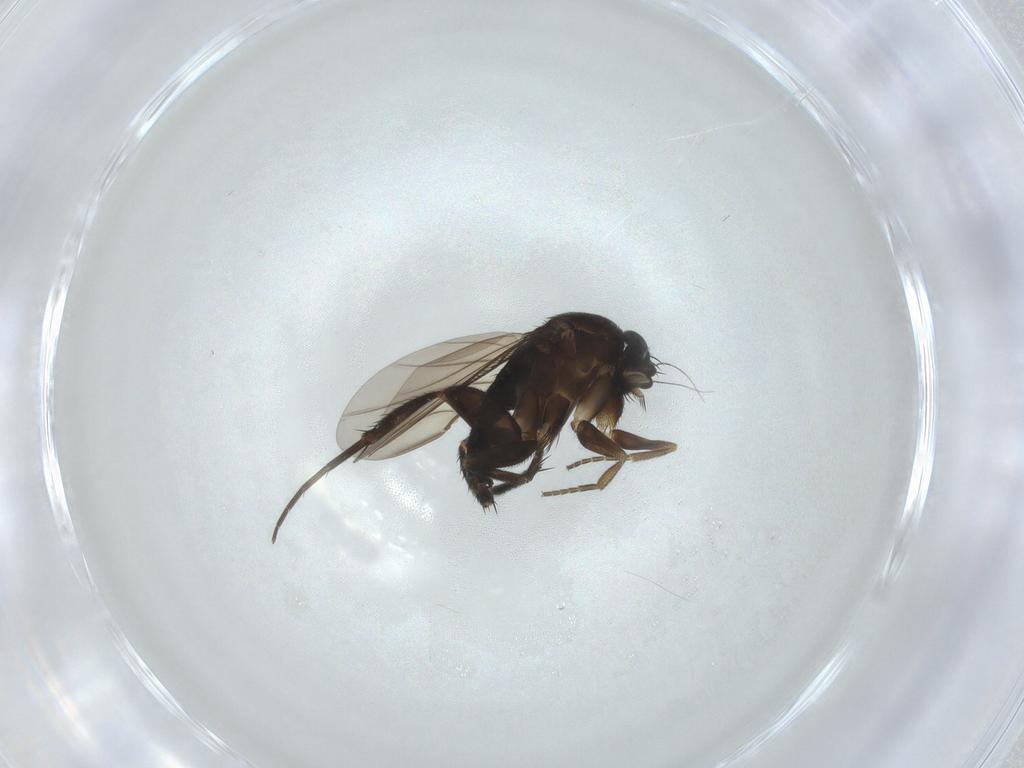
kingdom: Animalia
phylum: Arthropoda
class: Insecta
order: Diptera
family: Phoridae
